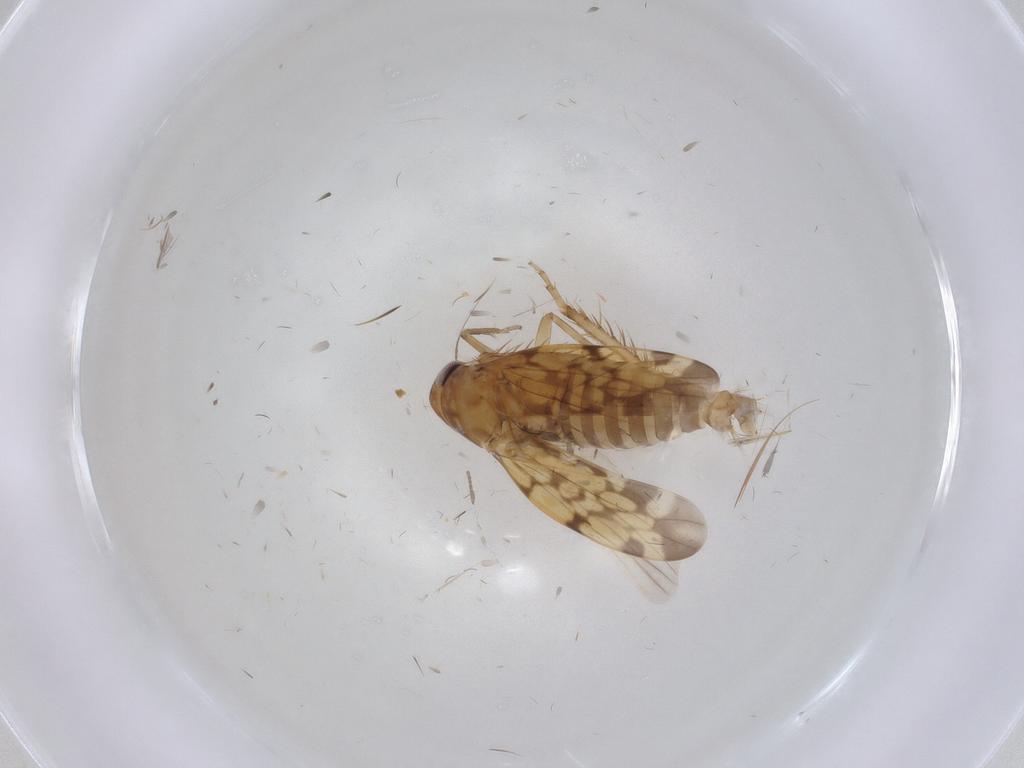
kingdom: Animalia
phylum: Arthropoda
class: Insecta
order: Hemiptera
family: Cicadellidae
